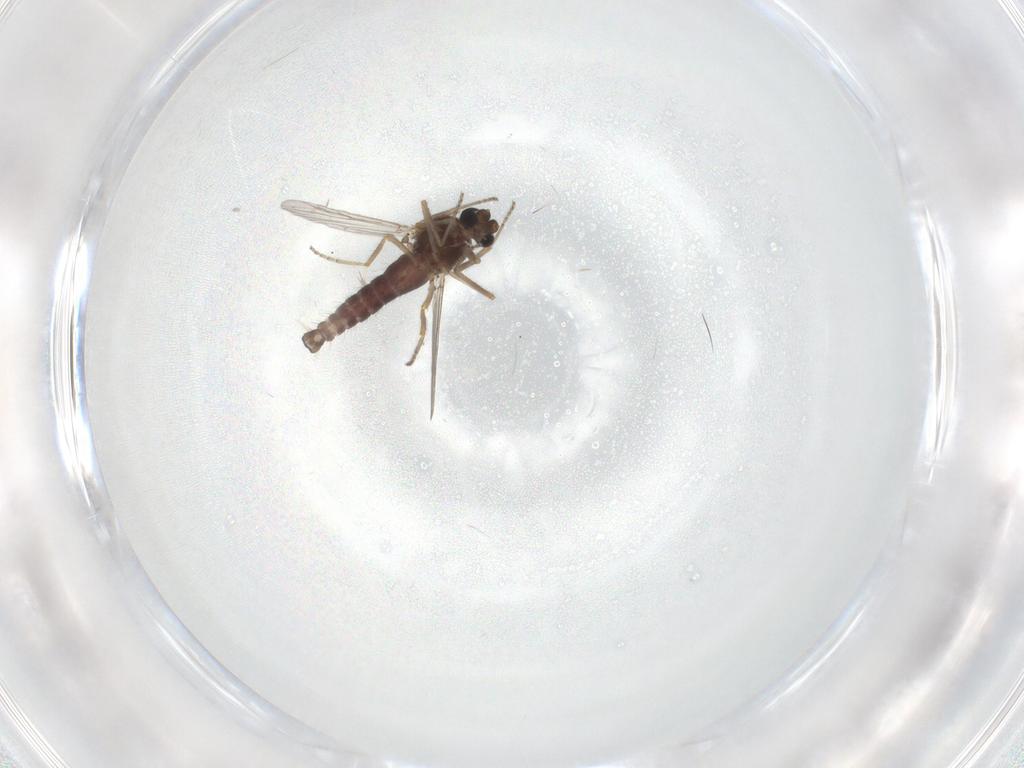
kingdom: Animalia
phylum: Arthropoda
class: Insecta
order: Diptera
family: Ceratopogonidae
